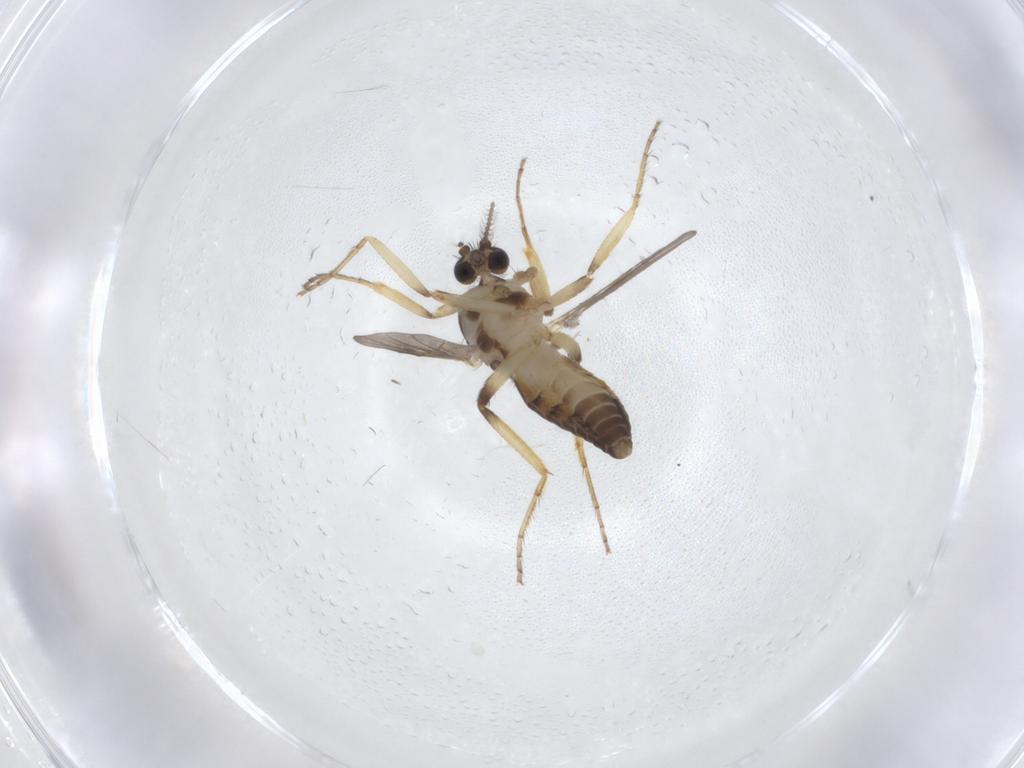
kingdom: Animalia
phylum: Arthropoda
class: Insecta
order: Diptera
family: Ceratopogonidae
